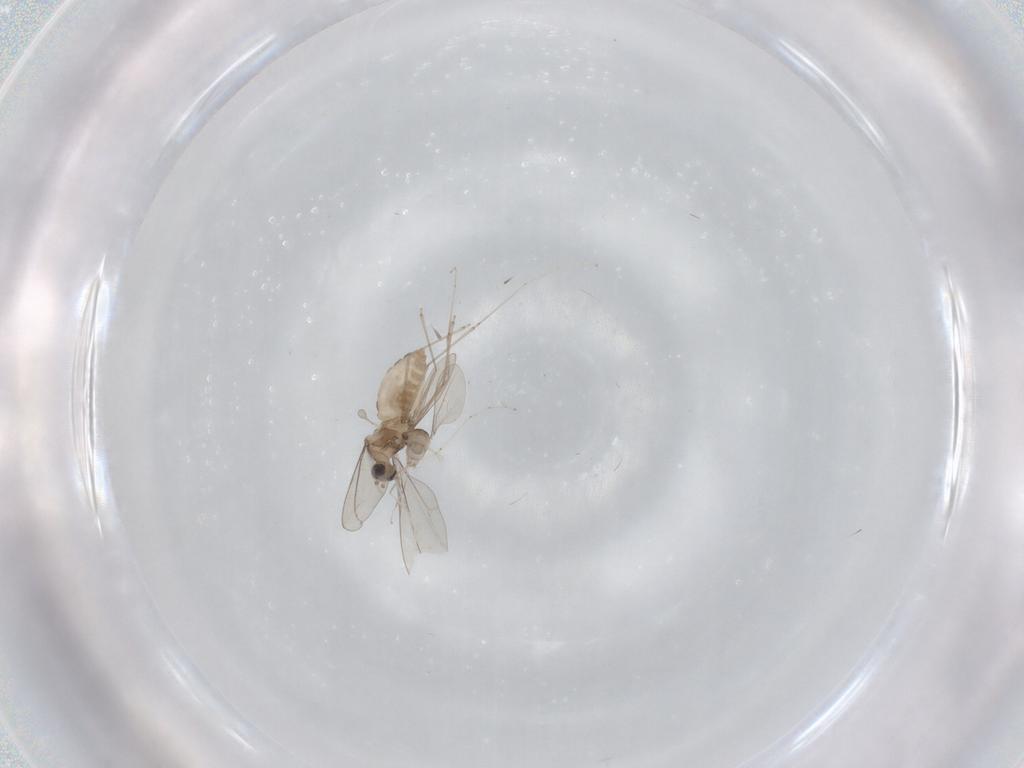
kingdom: Animalia
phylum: Arthropoda
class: Insecta
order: Diptera
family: Cecidomyiidae
